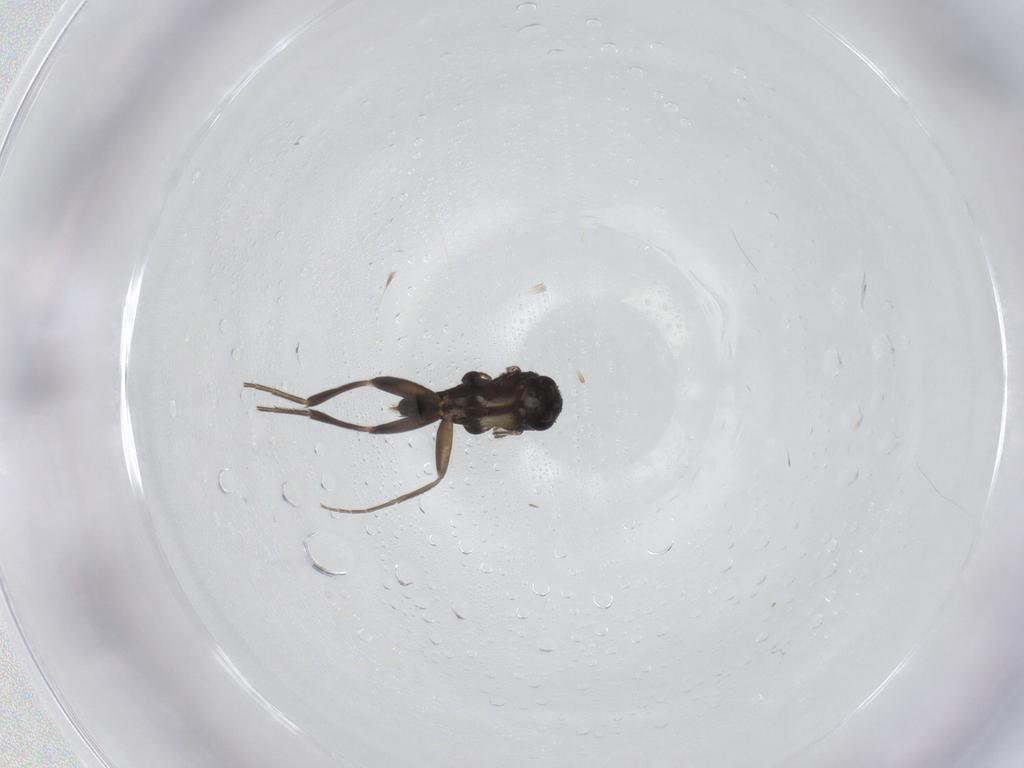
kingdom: Animalia
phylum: Arthropoda
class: Insecta
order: Diptera
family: Phoridae
